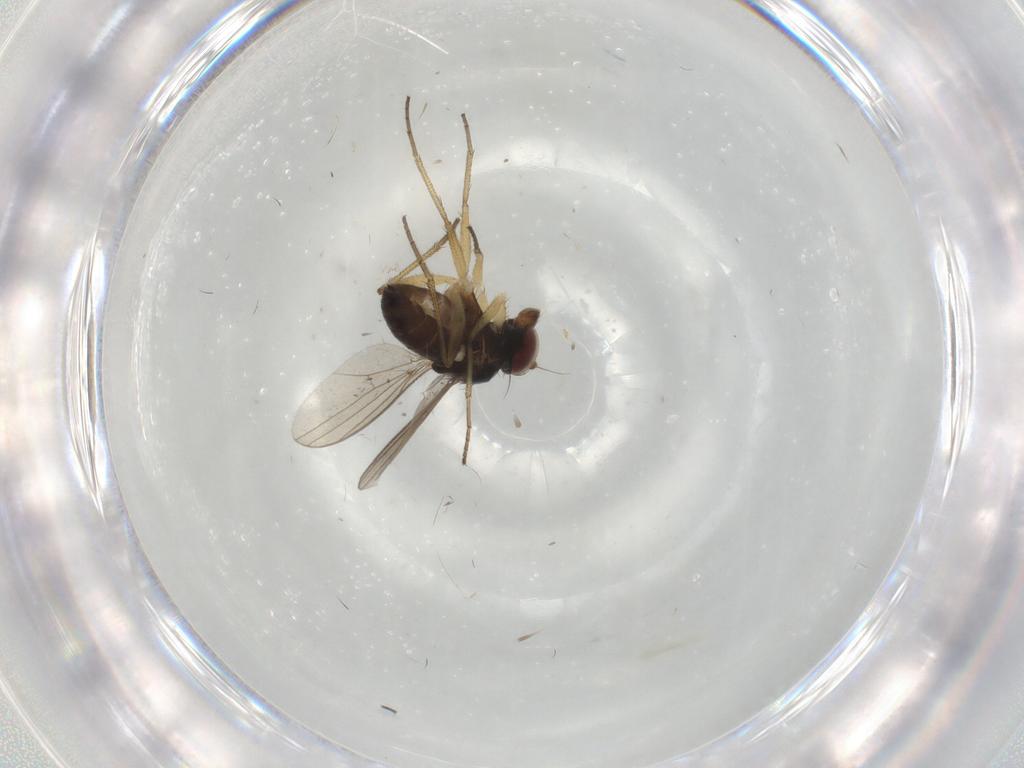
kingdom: Animalia
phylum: Arthropoda
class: Insecta
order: Diptera
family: Dolichopodidae
